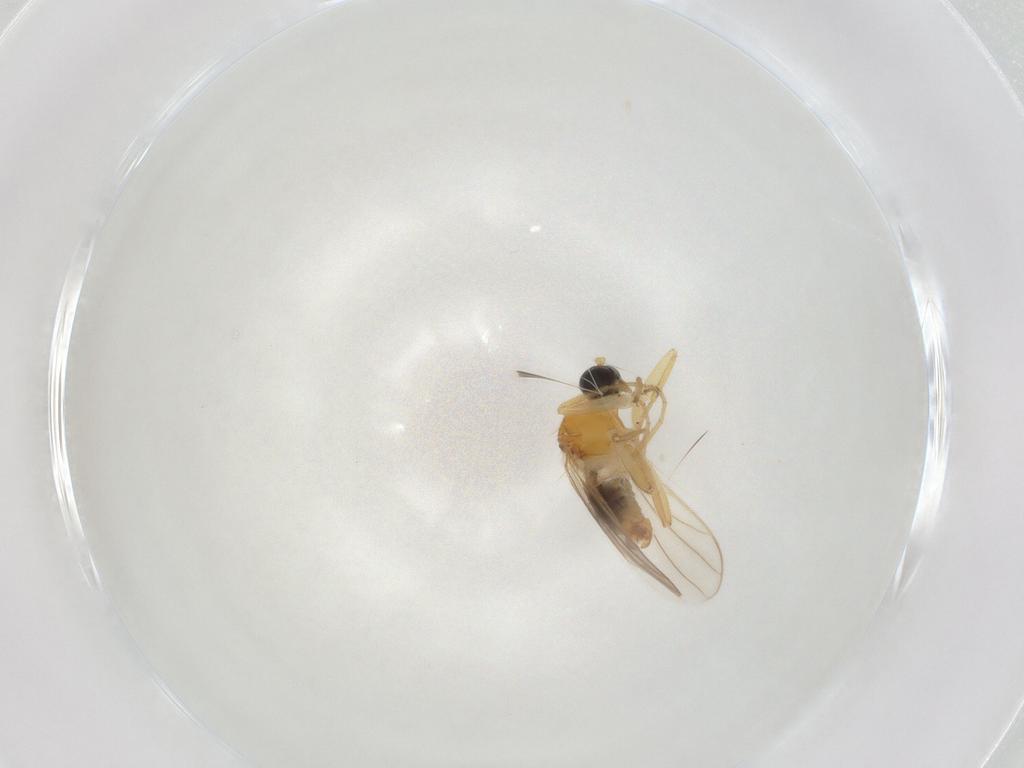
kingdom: Animalia
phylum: Arthropoda
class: Insecta
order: Diptera
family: Hybotidae
